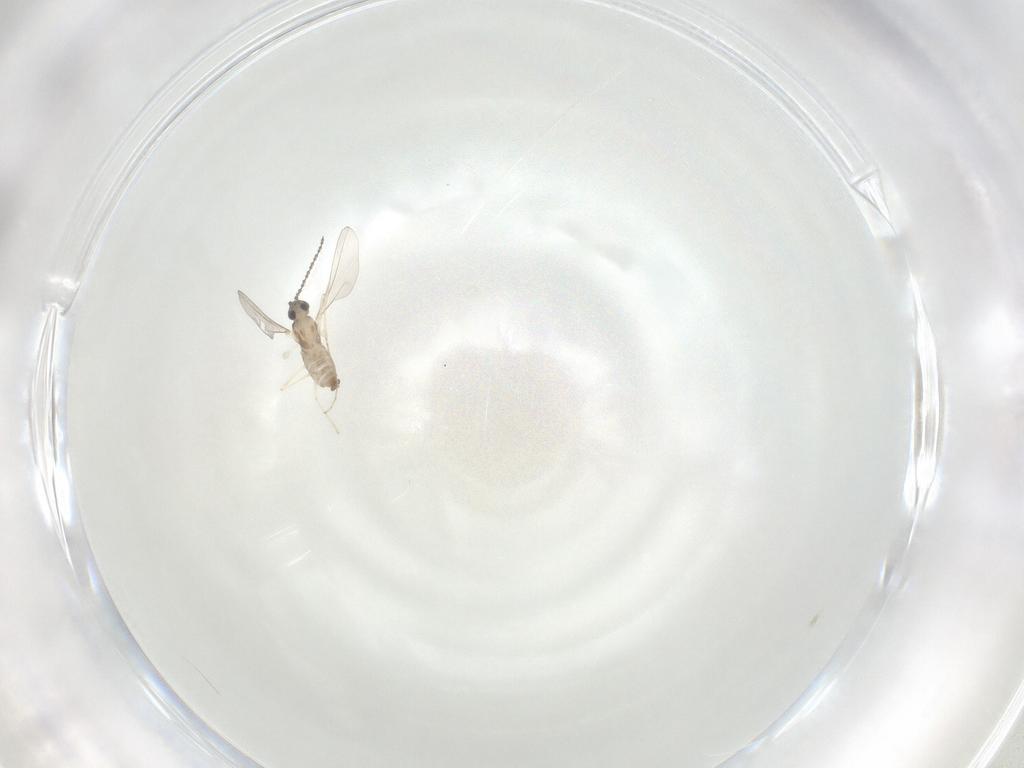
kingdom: Animalia
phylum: Arthropoda
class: Insecta
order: Diptera
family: Cecidomyiidae
